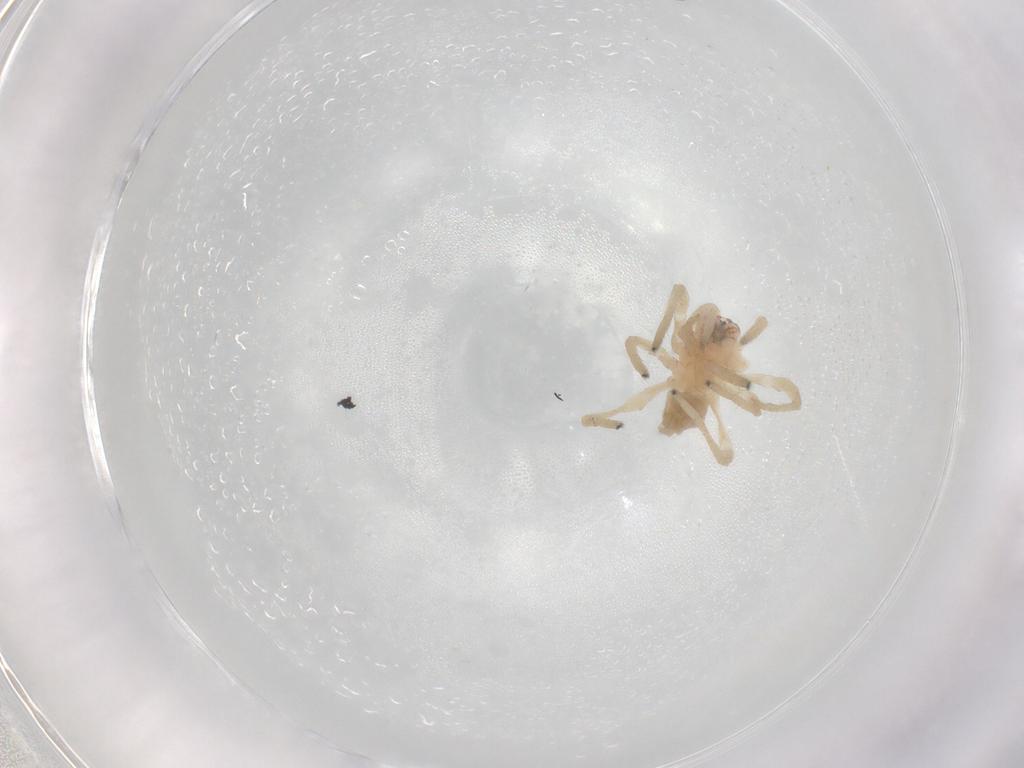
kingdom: Animalia
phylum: Arthropoda
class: Arachnida
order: Araneae
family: Cheiracanthiidae
